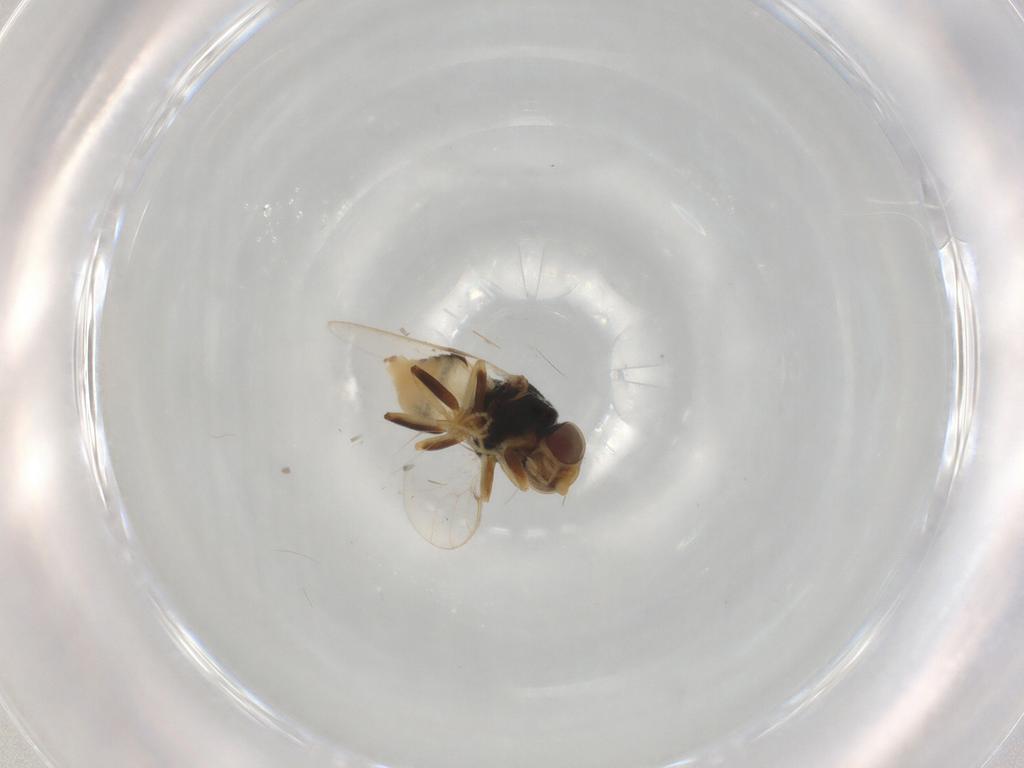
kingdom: Animalia
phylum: Arthropoda
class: Insecta
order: Diptera
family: Chloropidae
